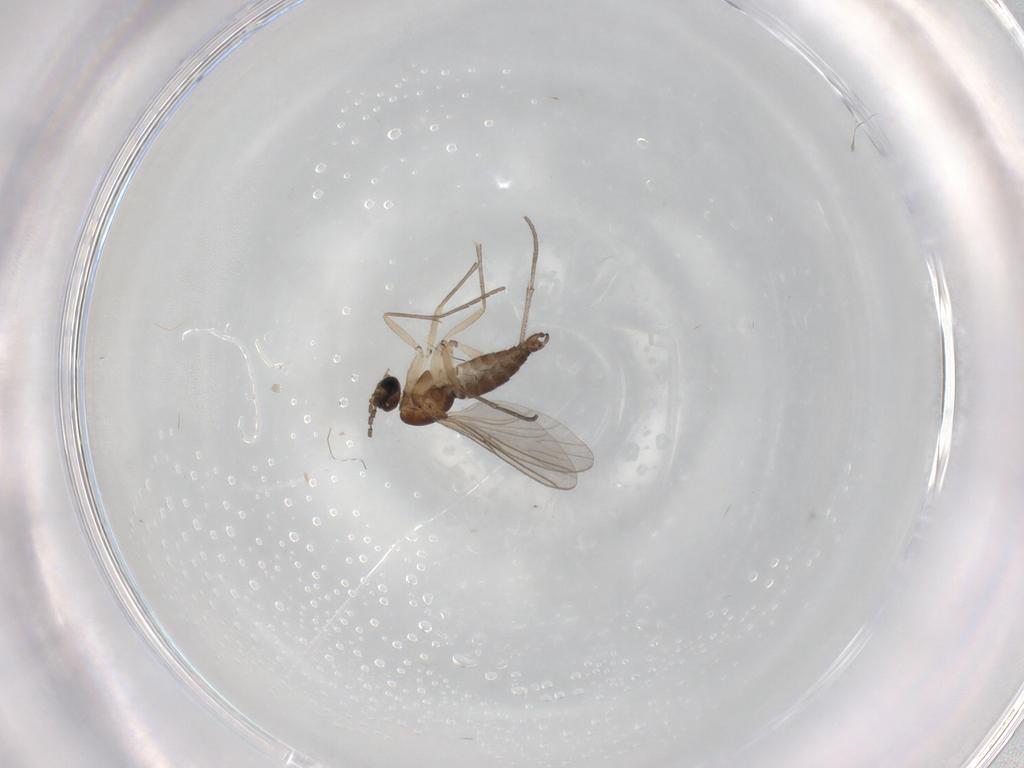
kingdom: Animalia
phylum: Arthropoda
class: Insecta
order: Diptera
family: Sciaridae
